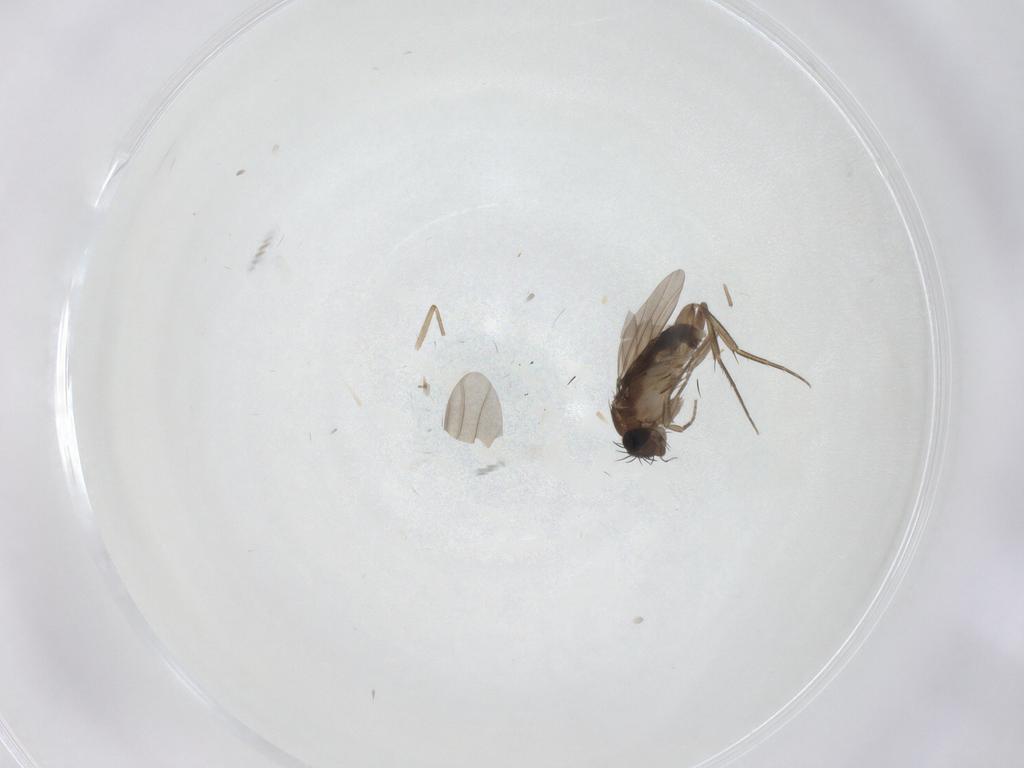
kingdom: Animalia
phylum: Arthropoda
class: Insecta
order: Diptera
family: Phoridae
